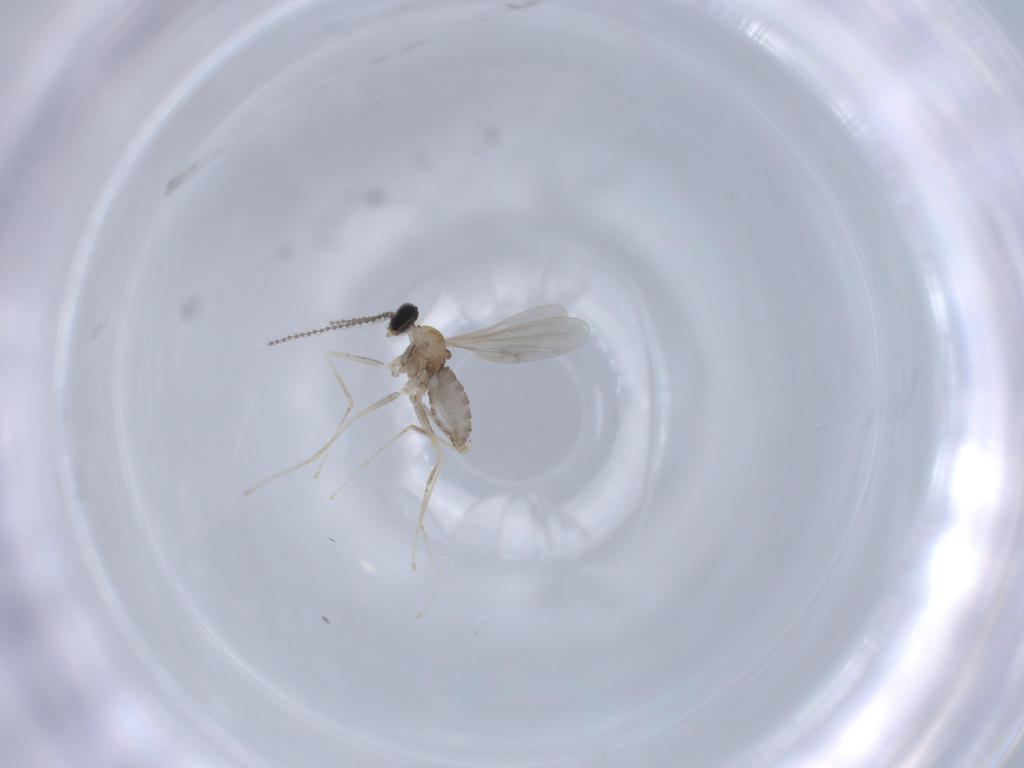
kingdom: Animalia
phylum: Arthropoda
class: Insecta
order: Diptera
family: Cecidomyiidae
